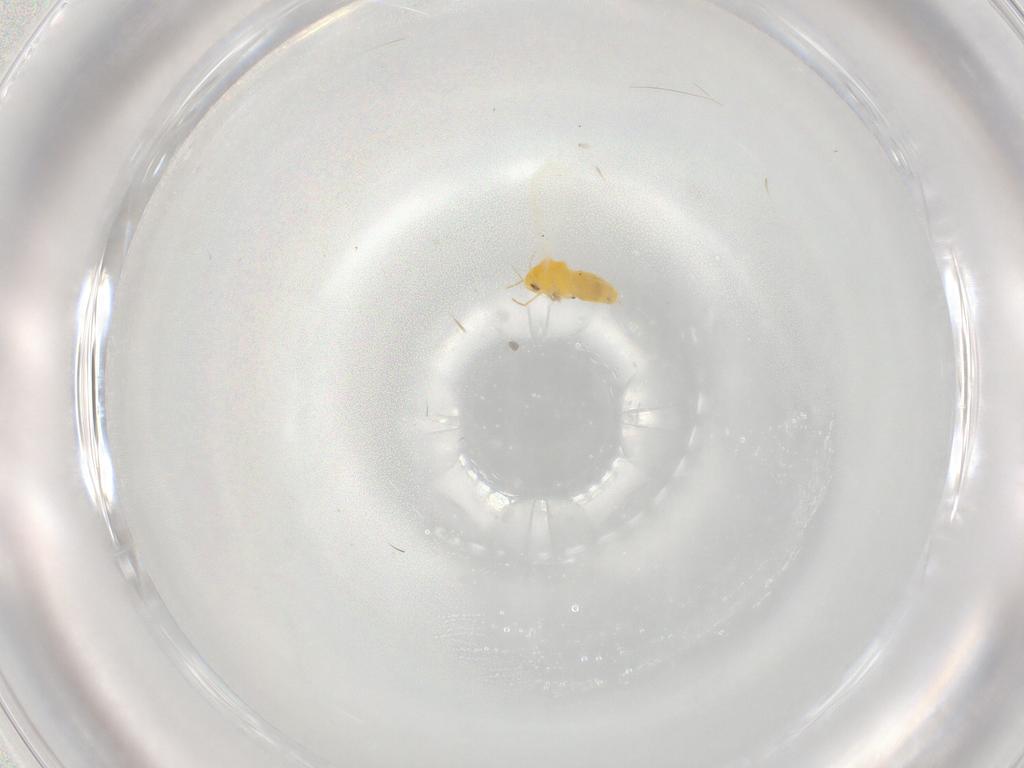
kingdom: Animalia
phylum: Arthropoda
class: Insecta
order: Hemiptera
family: Aleyrodidae
